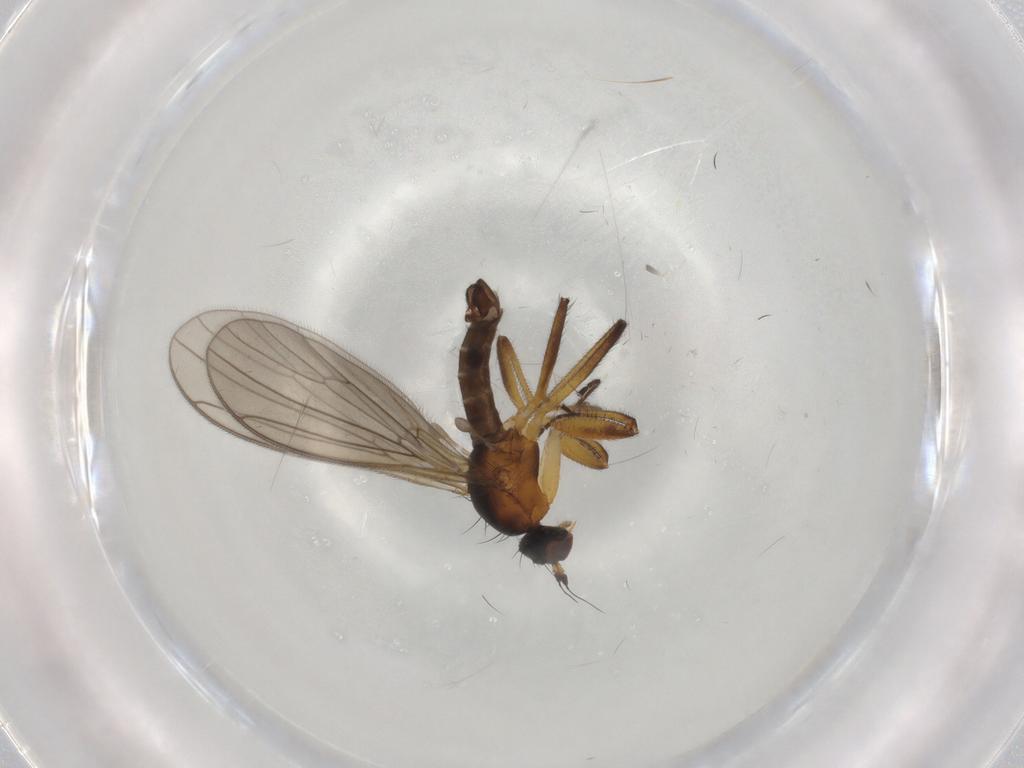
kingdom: Animalia
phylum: Arthropoda
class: Insecta
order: Diptera
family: Empididae
